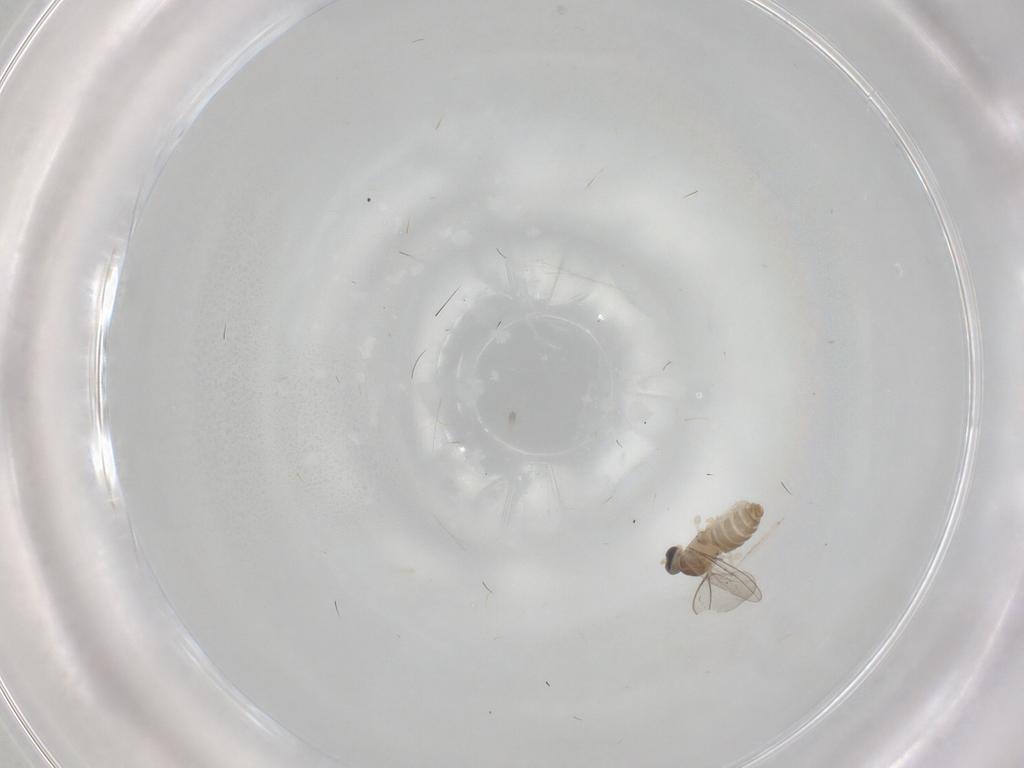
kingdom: Animalia
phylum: Arthropoda
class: Insecta
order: Diptera
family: Cecidomyiidae
